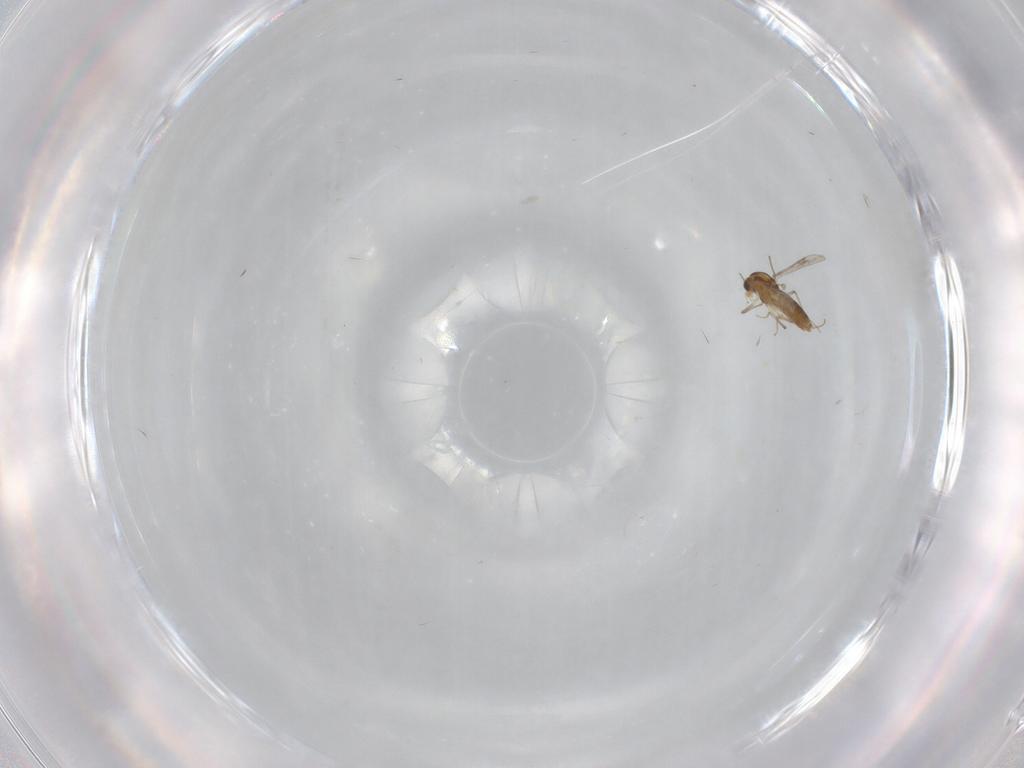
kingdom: Animalia
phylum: Arthropoda
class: Insecta
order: Diptera
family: Chironomidae
